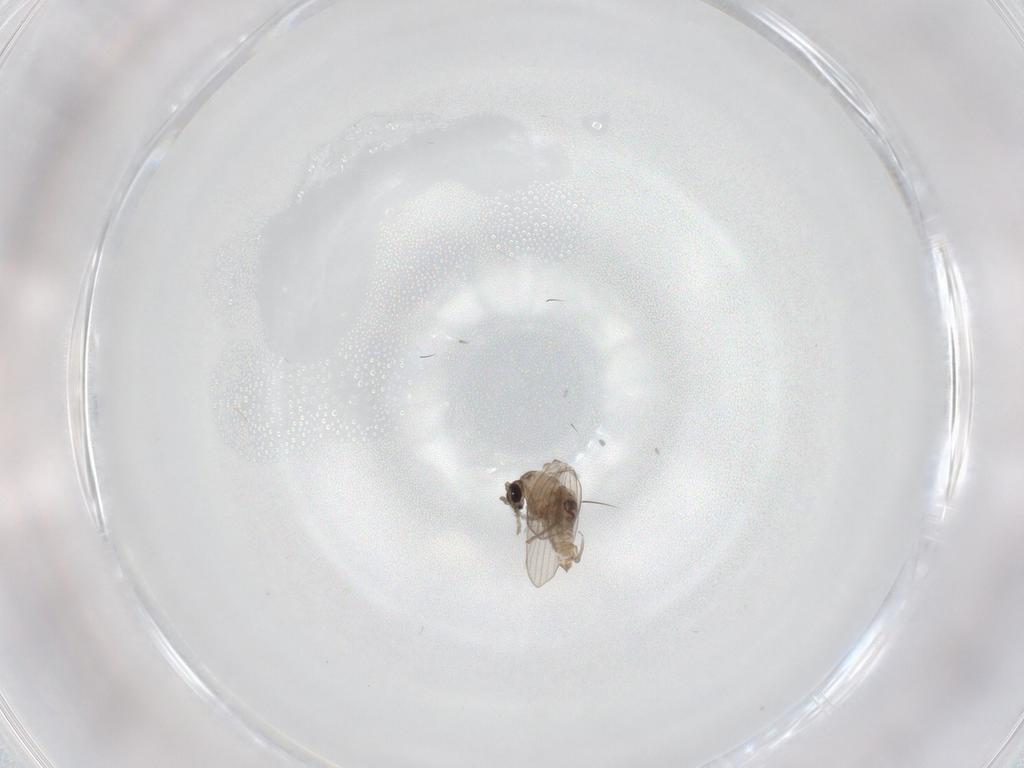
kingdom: Animalia
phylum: Arthropoda
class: Insecta
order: Diptera
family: Psychodidae
